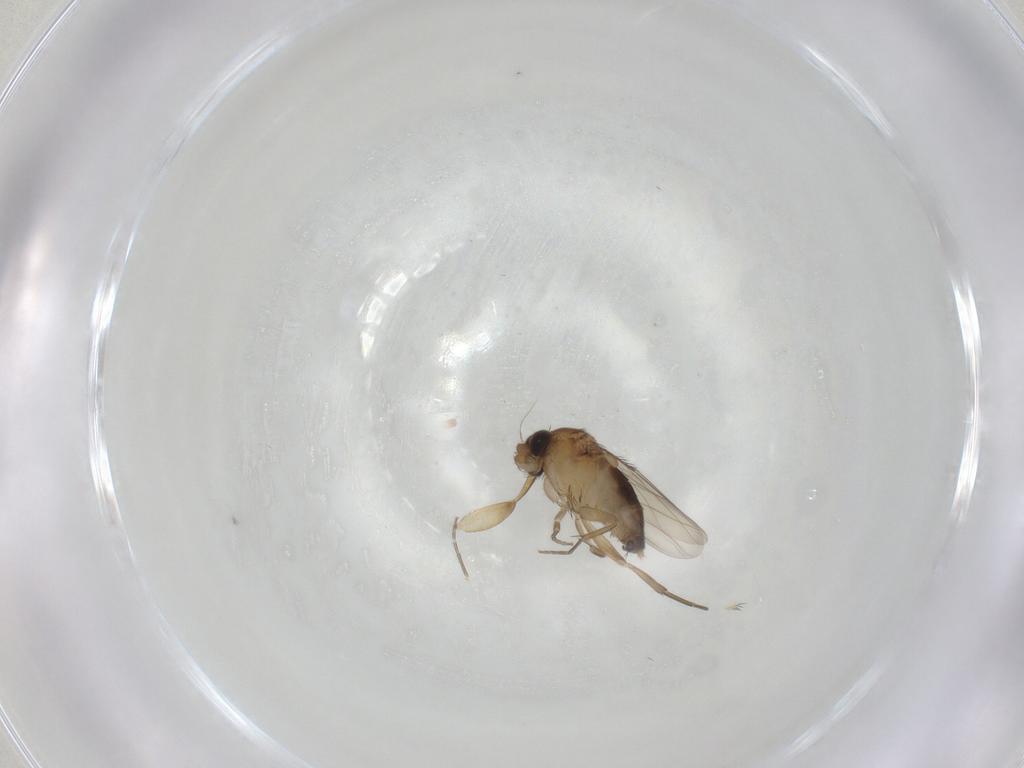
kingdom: Animalia
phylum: Arthropoda
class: Insecta
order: Diptera
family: Phoridae
